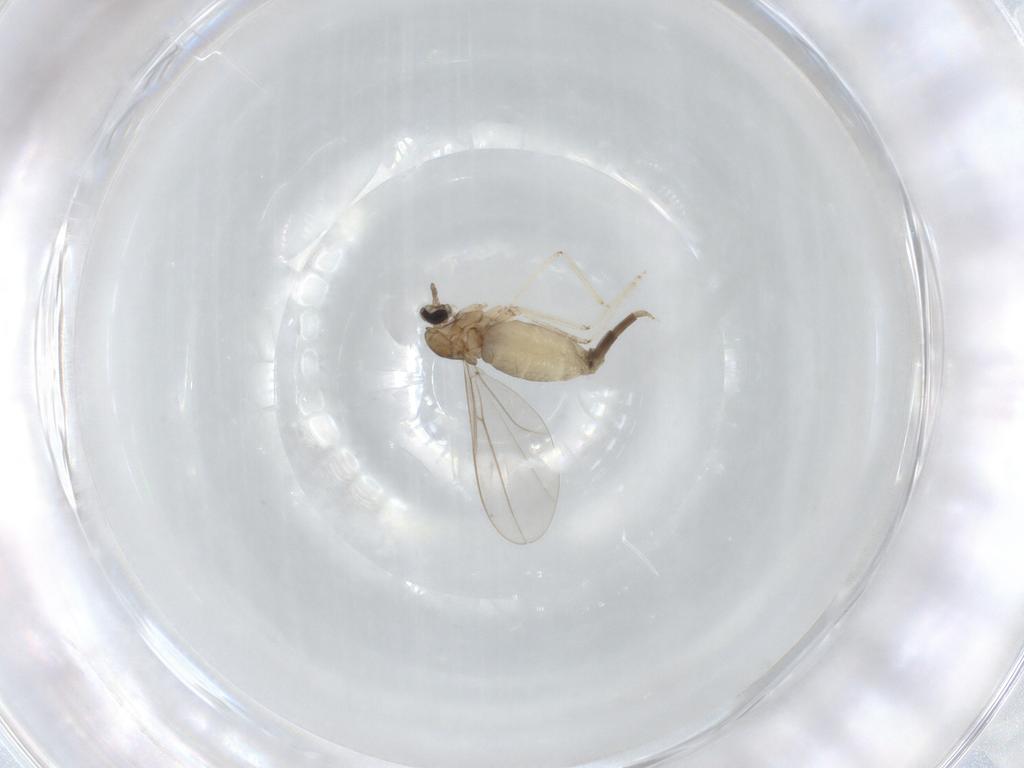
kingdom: Animalia
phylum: Arthropoda
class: Insecta
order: Diptera
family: Cecidomyiidae
